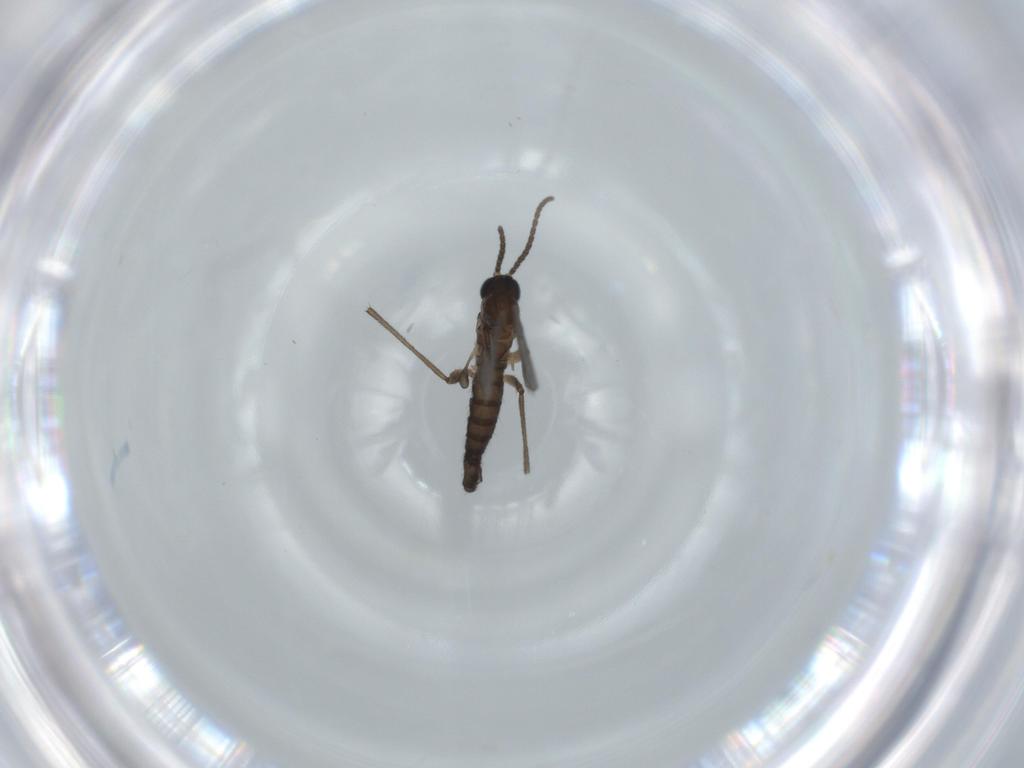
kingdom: Animalia
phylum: Arthropoda
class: Insecta
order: Diptera
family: Sciaridae
